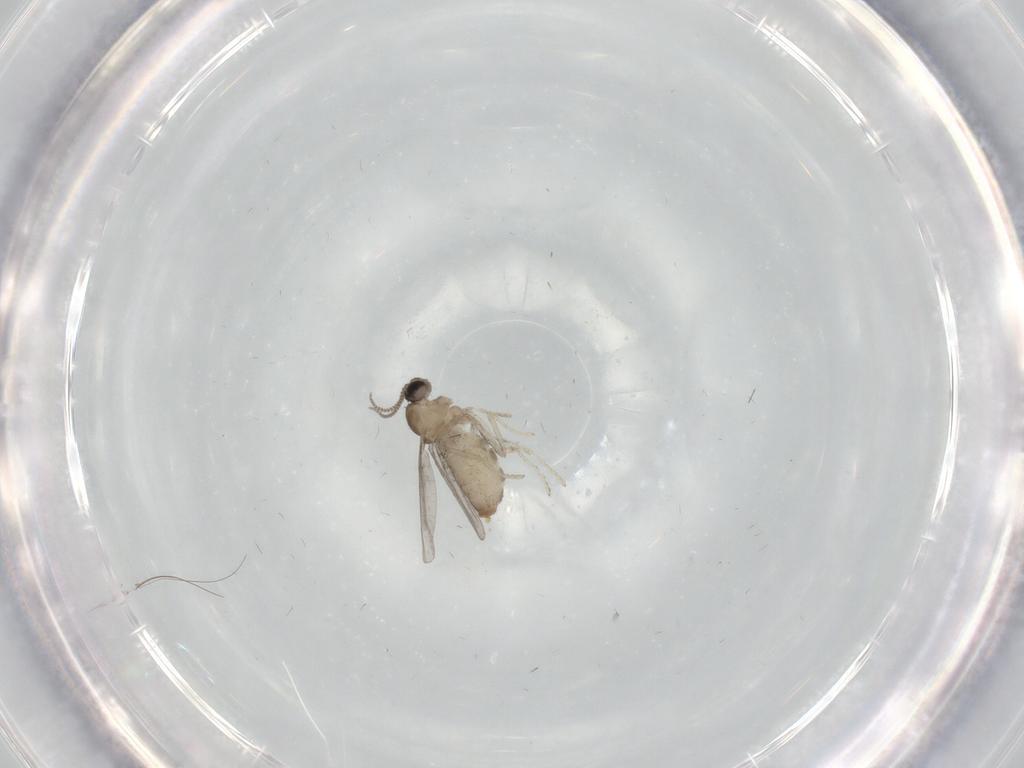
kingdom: Animalia
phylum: Arthropoda
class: Insecta
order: Diptera
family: Cecidomyiidae
